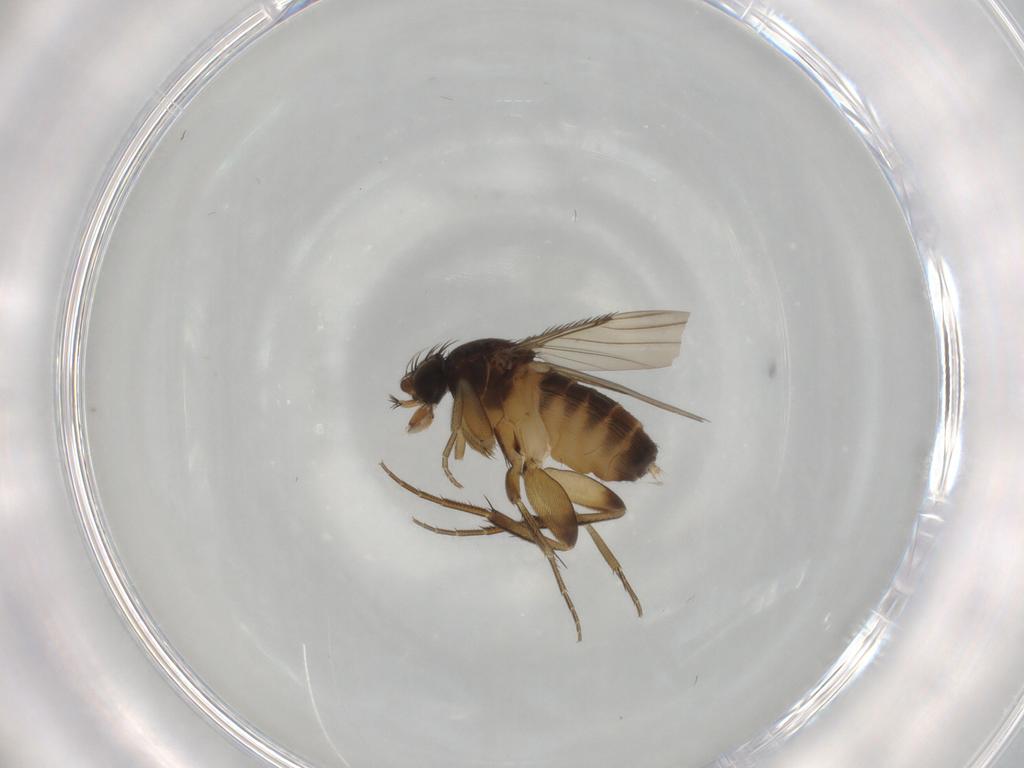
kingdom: Animalia
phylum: Arthropoda
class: Insecta
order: Diptera
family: Phoridae
